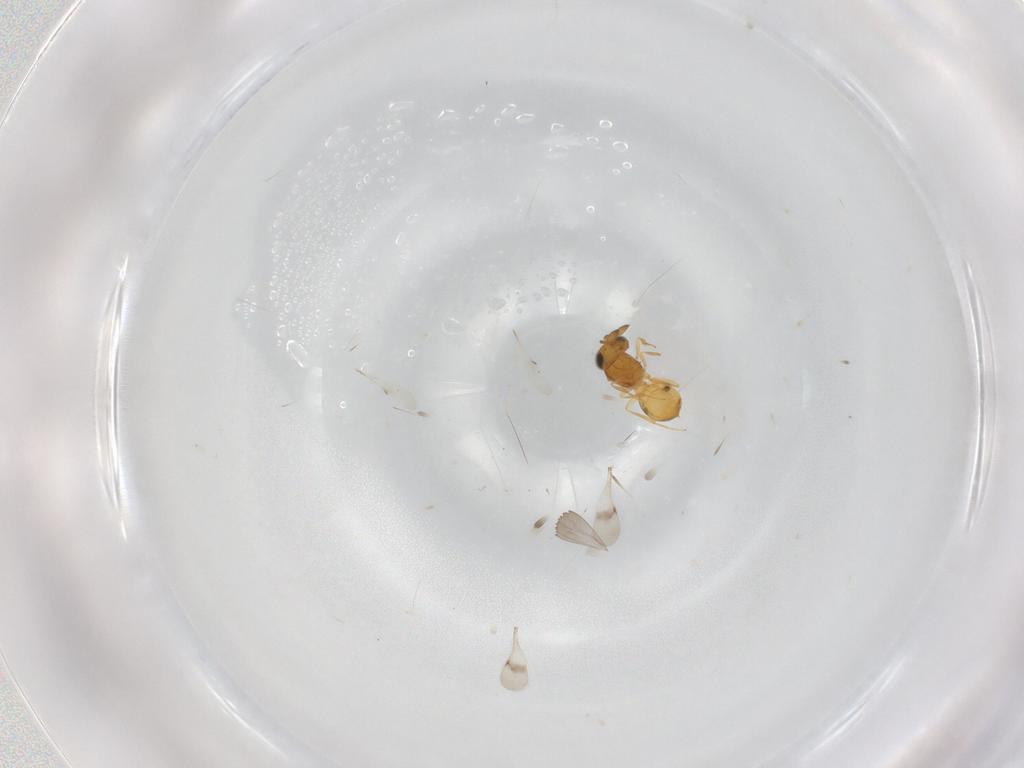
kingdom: Animalia
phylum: Arthropoda
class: Insecta
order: Hymenoptera
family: Scelionidae
